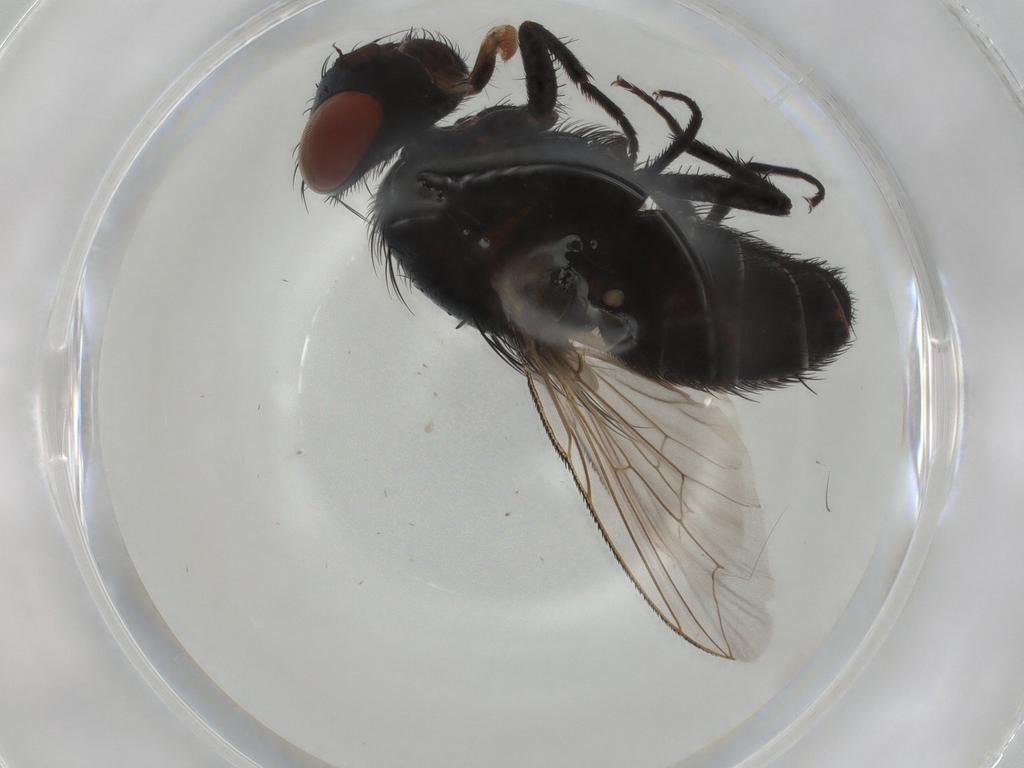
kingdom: Animalia
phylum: Arthropoda
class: Insecta
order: Diptera
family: Sarcophagidae
